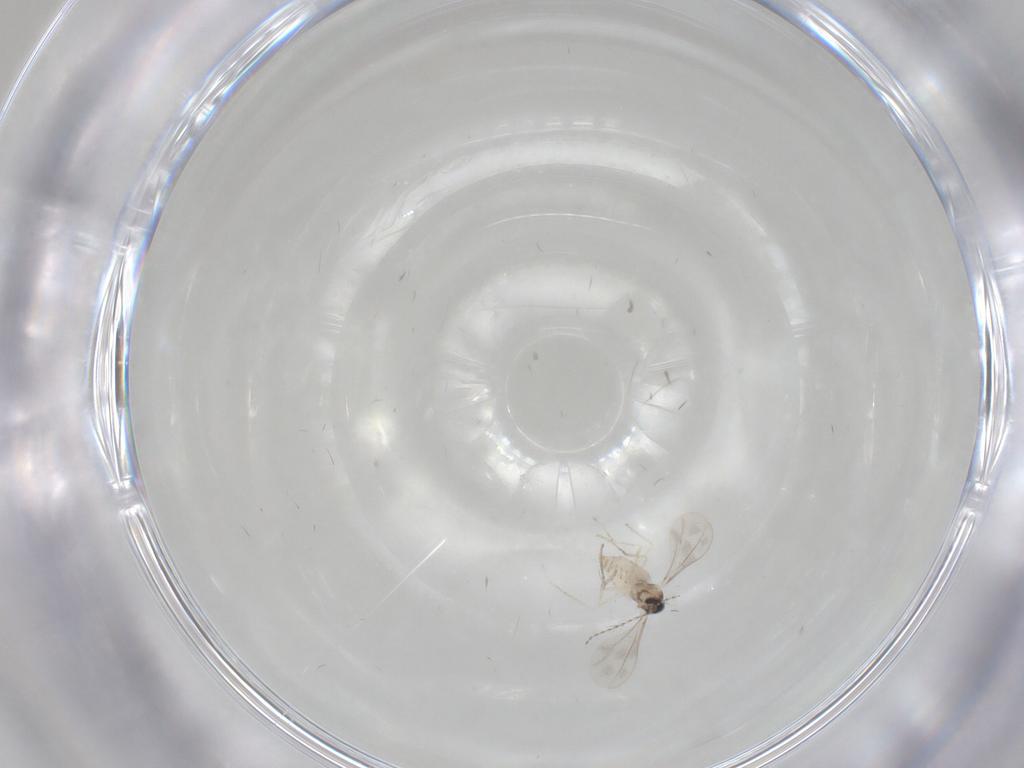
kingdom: Animalia
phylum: Arthropoda
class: Insecta
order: Diptera
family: Cecidomyiidae
